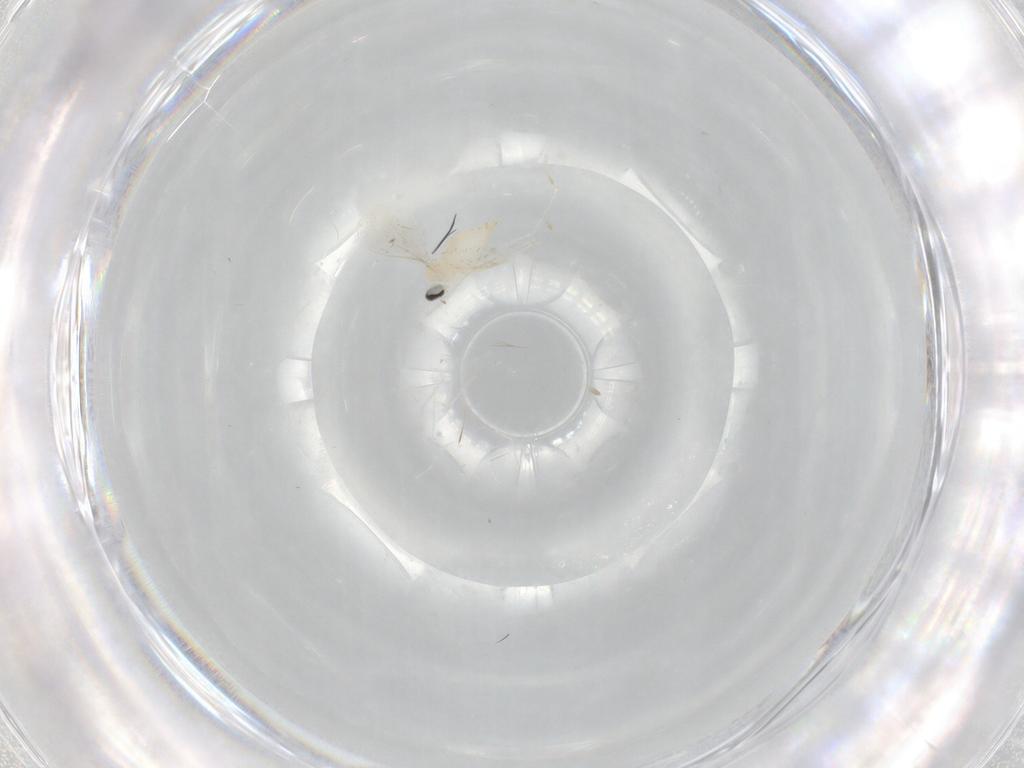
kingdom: Animalia
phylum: Arthropoda
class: Insecta
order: Diptera
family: Cecidomyiidae
